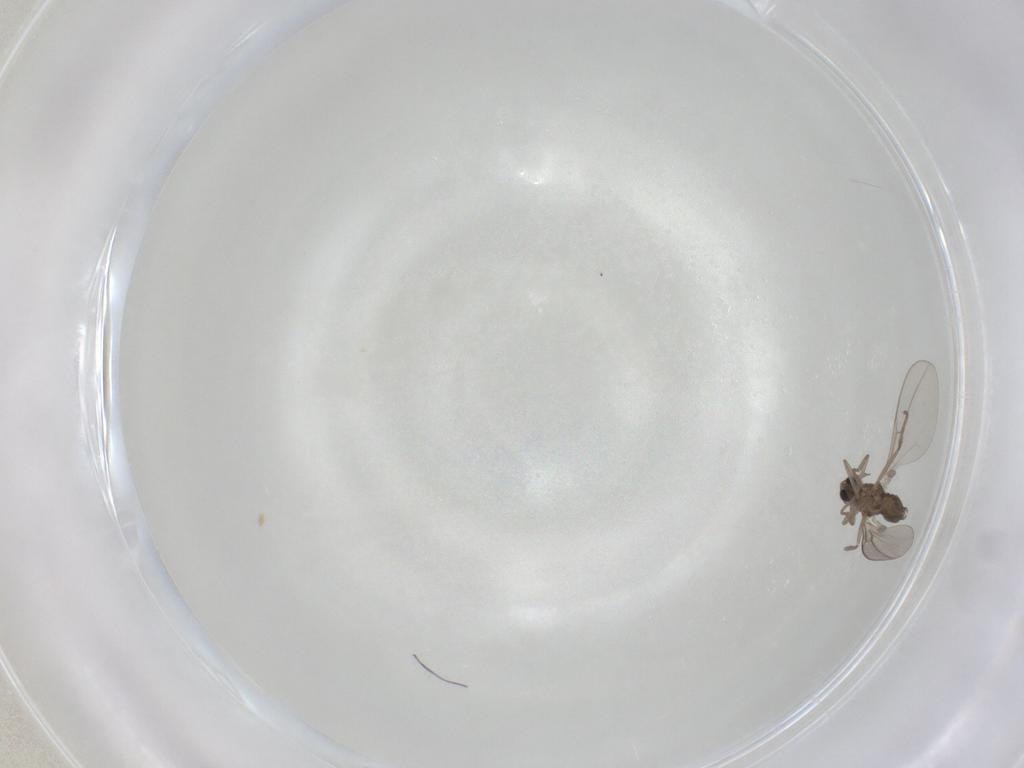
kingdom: Animalia
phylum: Arthropoda
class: Insecta
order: Diptera
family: Ceratopogonidae
